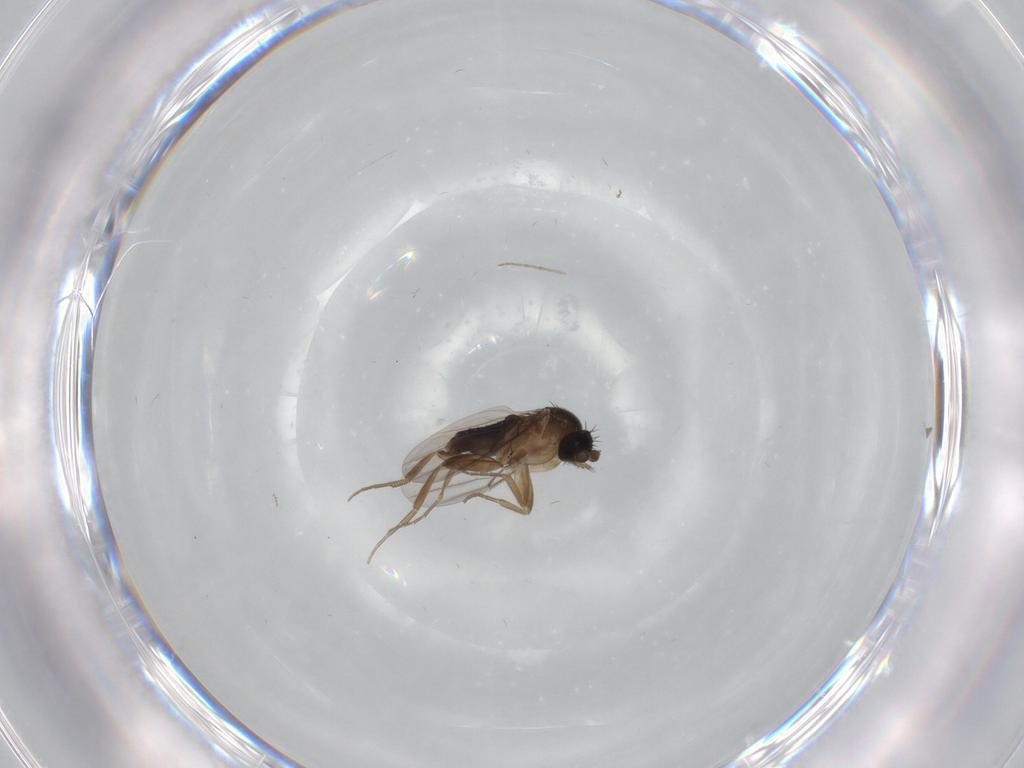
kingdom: Animalia
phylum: Arthropoda
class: Insecta
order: Diptera
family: Phoridae
